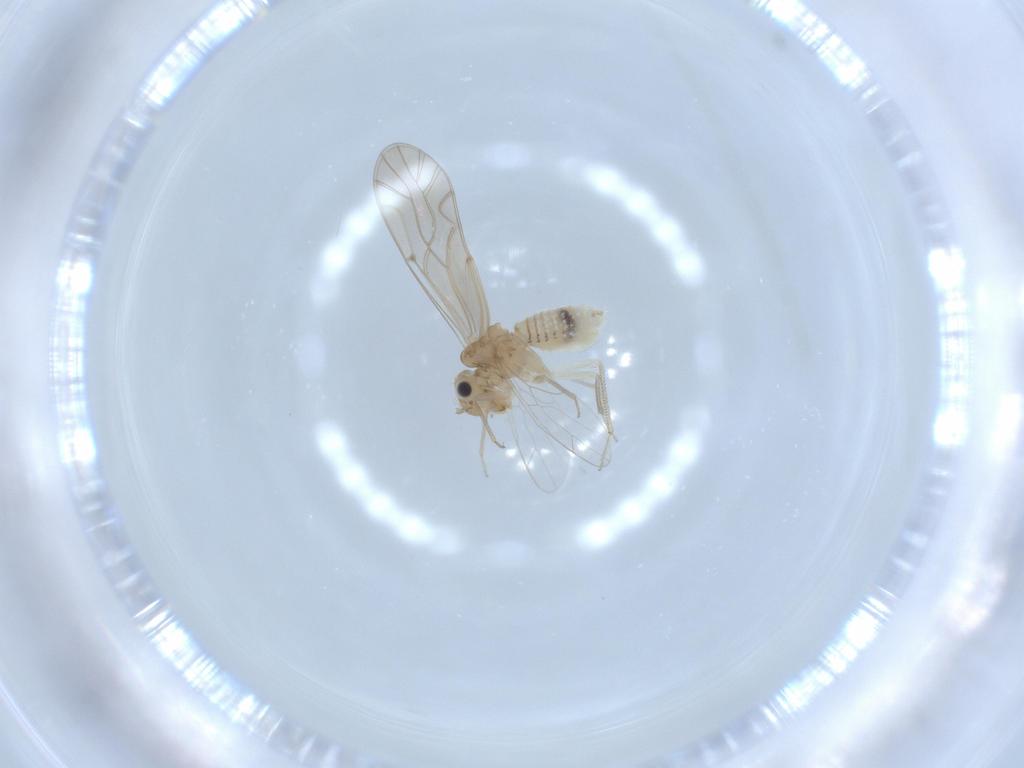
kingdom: Animalia
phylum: Arthropoda
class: Insecta
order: Psocodea
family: Lachesillidae
